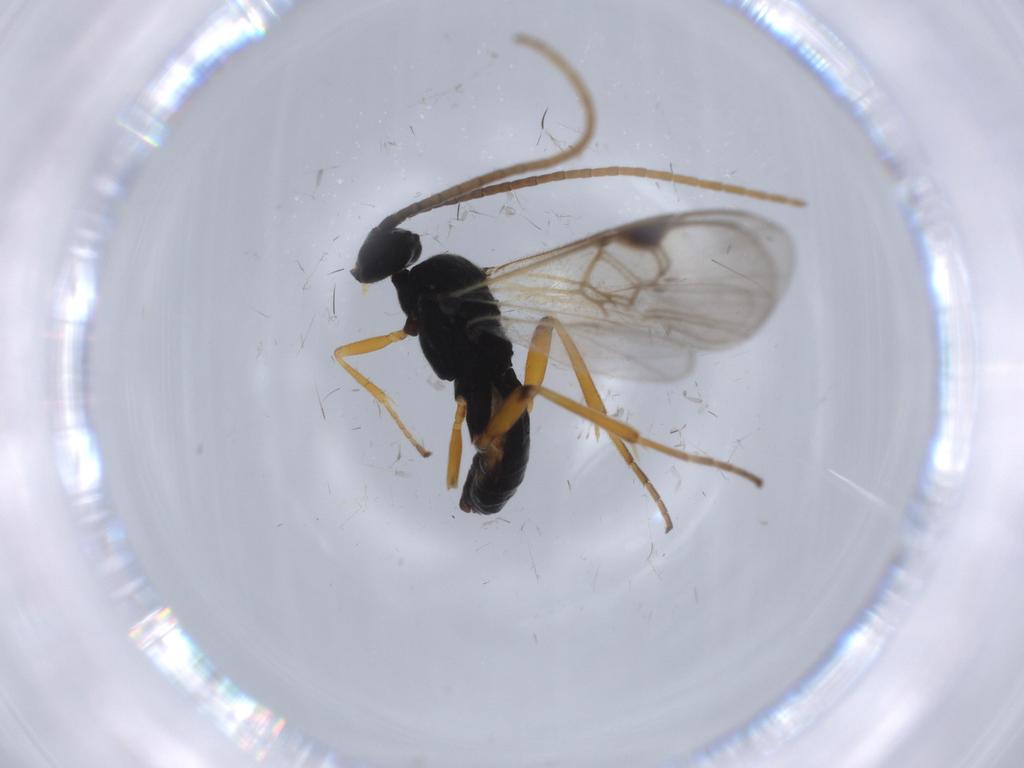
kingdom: Animalia
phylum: Arthropoda
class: Insecta
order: Hymenoptera
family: Braconidae
